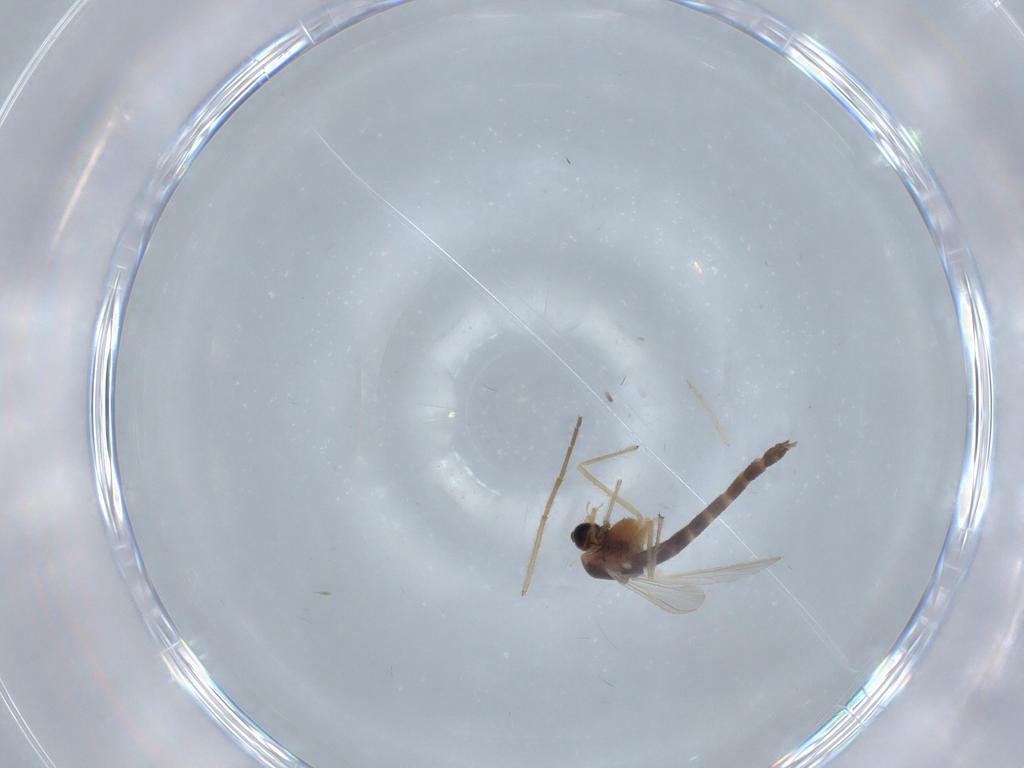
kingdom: Animalia
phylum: Arthropoda
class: Insecta
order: Diptera
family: Chironomidae
